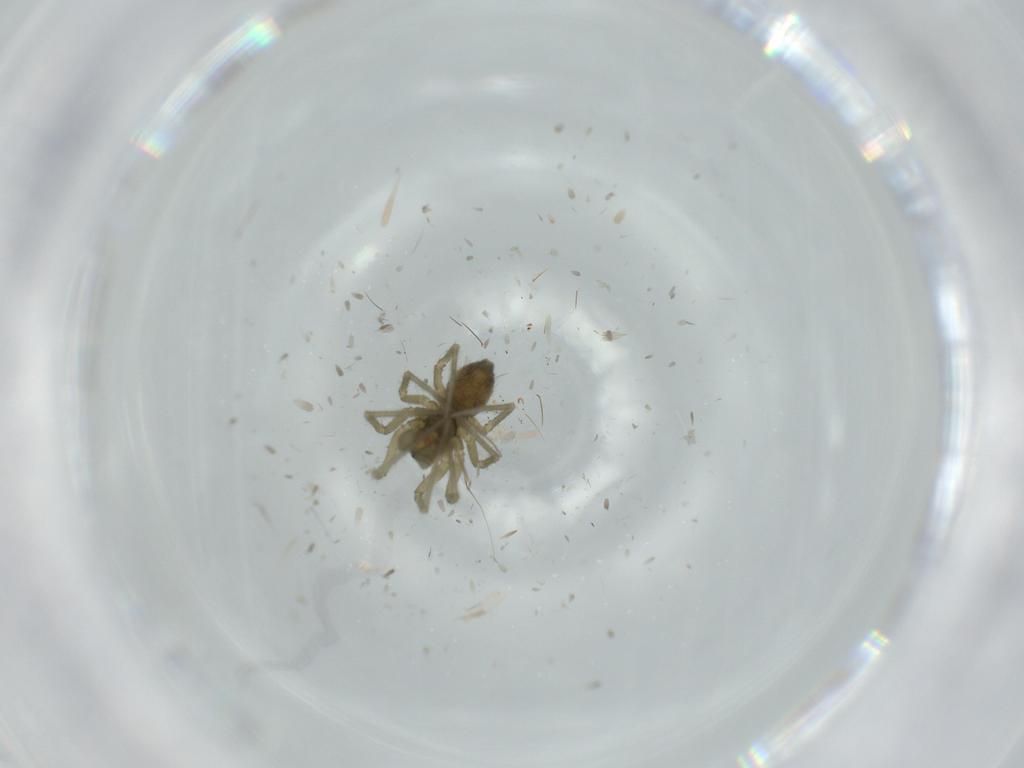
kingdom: Animalia
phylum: Arthropoda
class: Arachnida
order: Araneae
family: Linyphiidae
